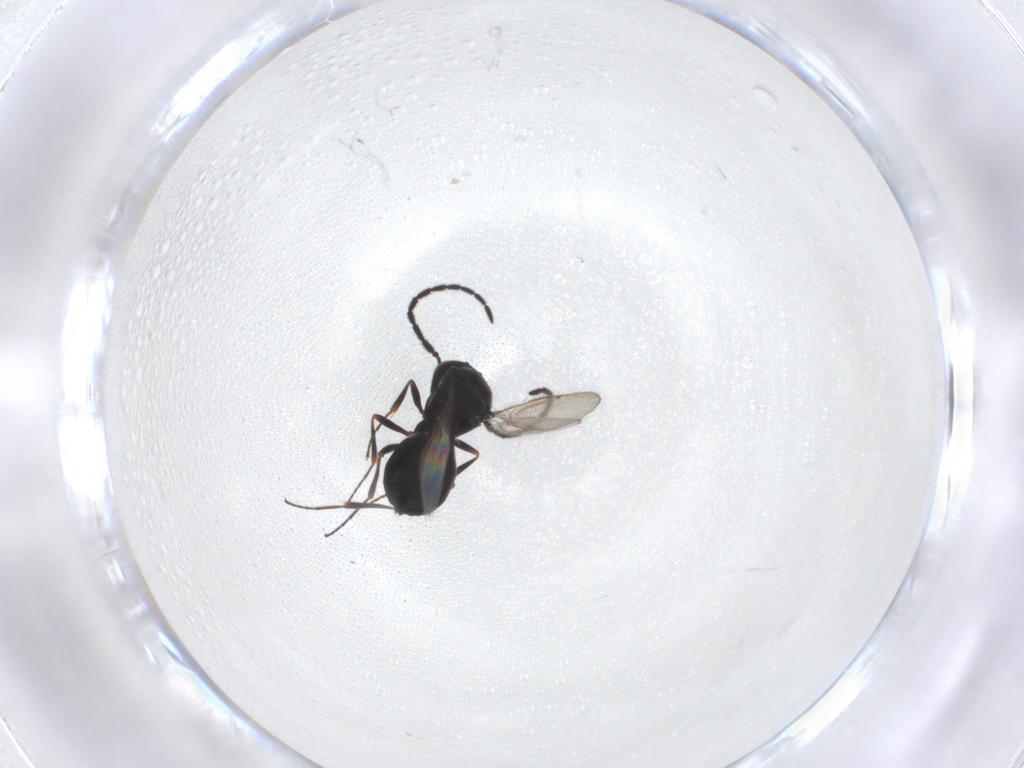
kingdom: Animalia
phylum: Arthropoda
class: Insecta
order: Hymenoptera
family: Scelionidae
